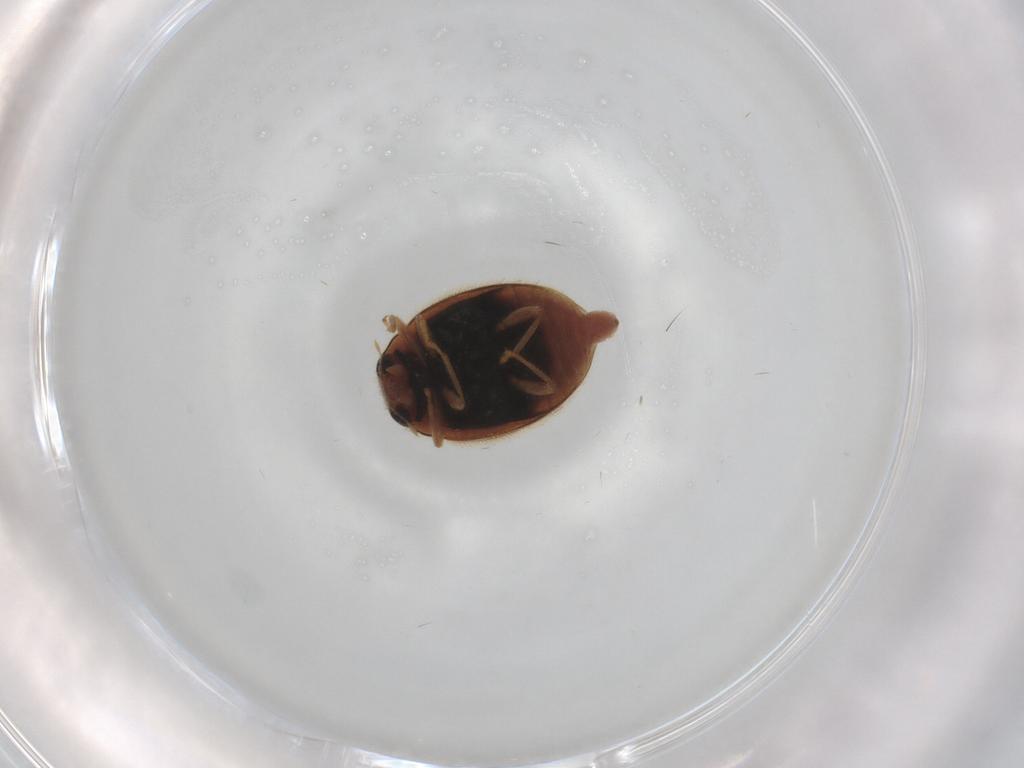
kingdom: Animalia
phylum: Arthropoda
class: Insecta
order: Coleoptera
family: Coccinellidae
